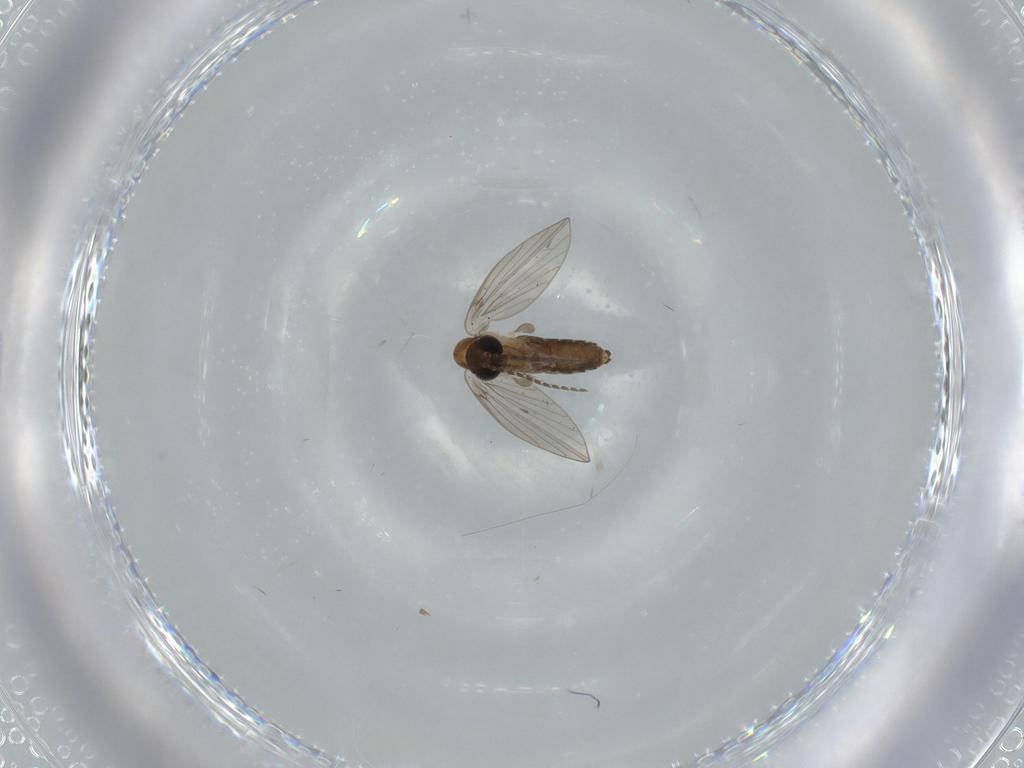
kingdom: Animalia
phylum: Arthropoda
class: Insecta
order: Diptera
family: Psychodidae
